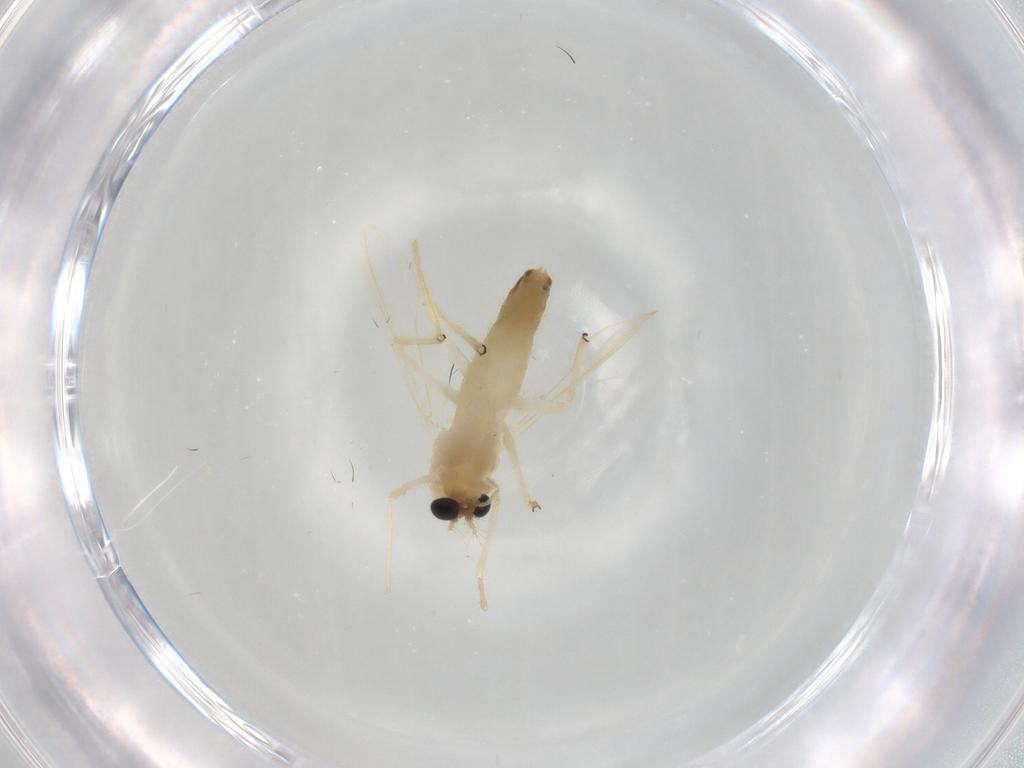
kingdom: Animalia
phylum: Arthropoda
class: Insecta
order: Diptera
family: Chironomidae
